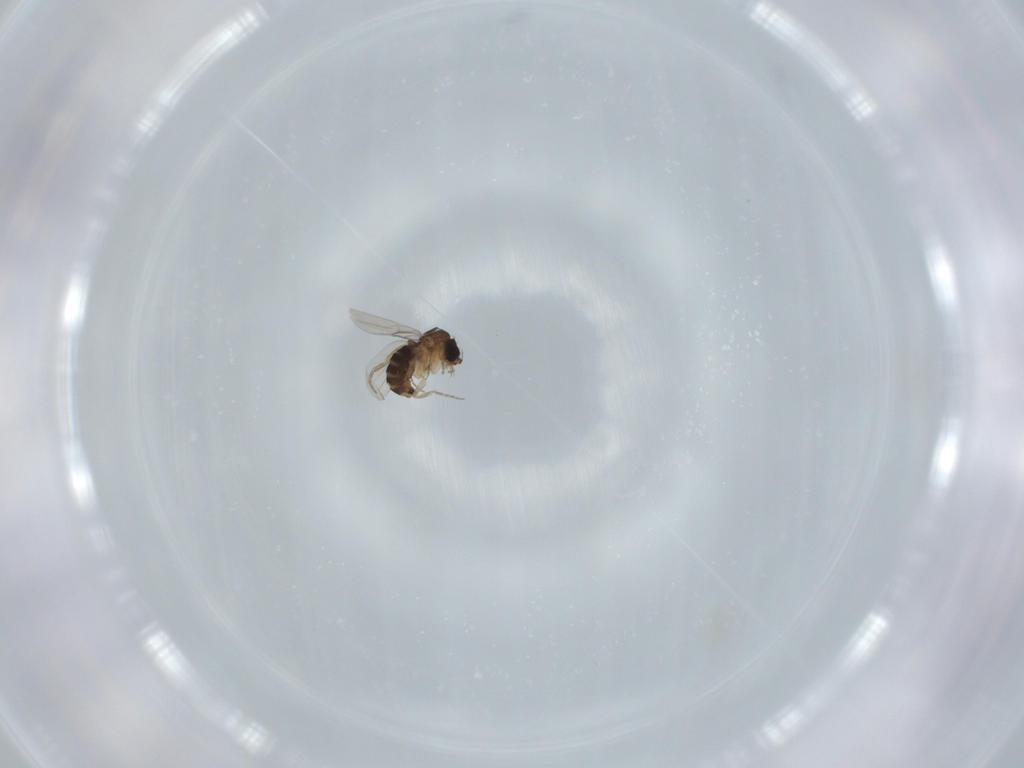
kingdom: Animalia
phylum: Arthropoda
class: Insecta
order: Diptera
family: Phoridae
